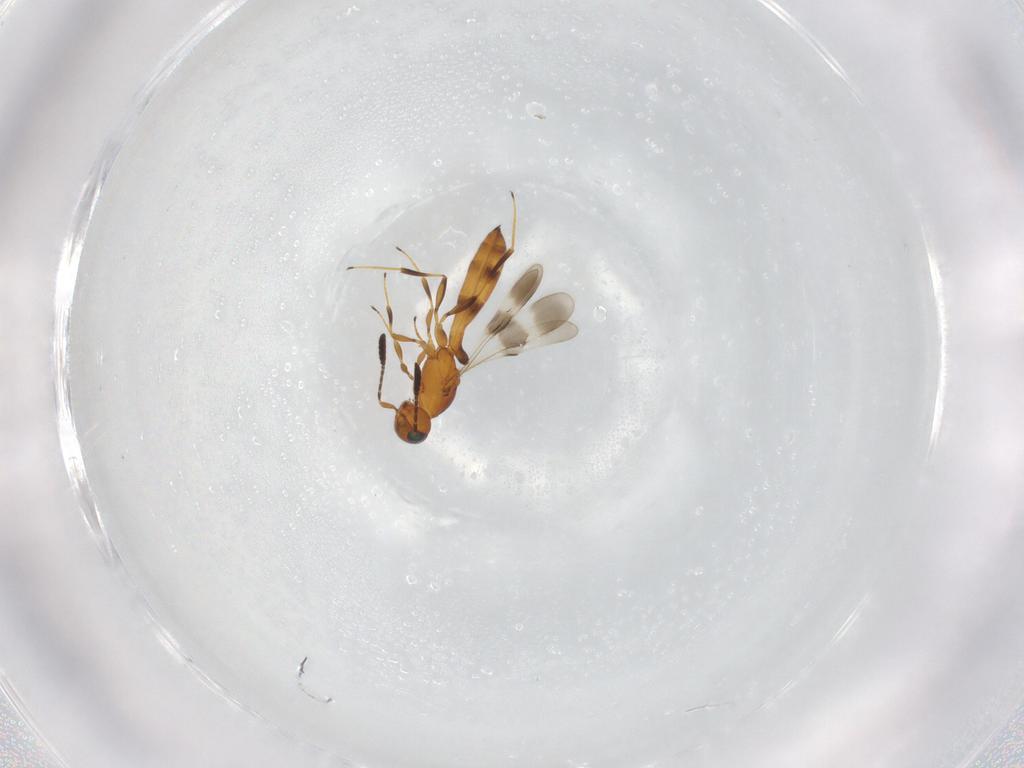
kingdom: Animalia
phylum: Arthropoda
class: Insecta
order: Hymenoptera
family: Scelionidae
